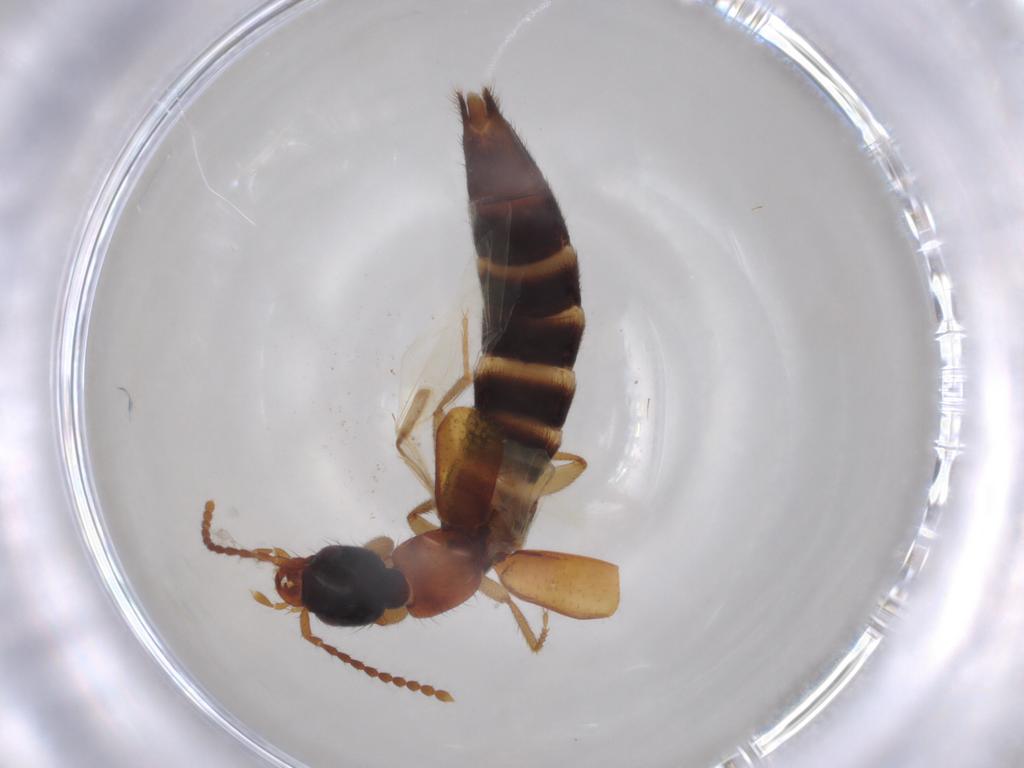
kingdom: Animalia
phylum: Arthropoda
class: Insecta
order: Coleoptera
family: Staphylinidae
